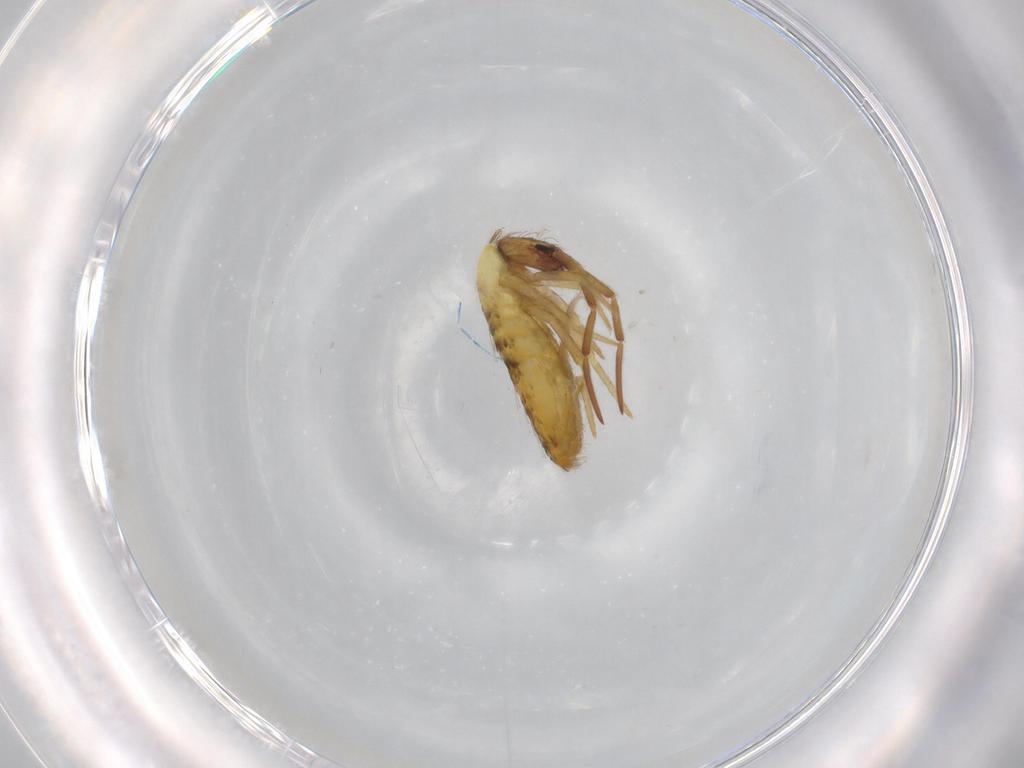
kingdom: Animalia
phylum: Arthropoda
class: Collembola
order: Entomobryomorpha
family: Entomobryidae
